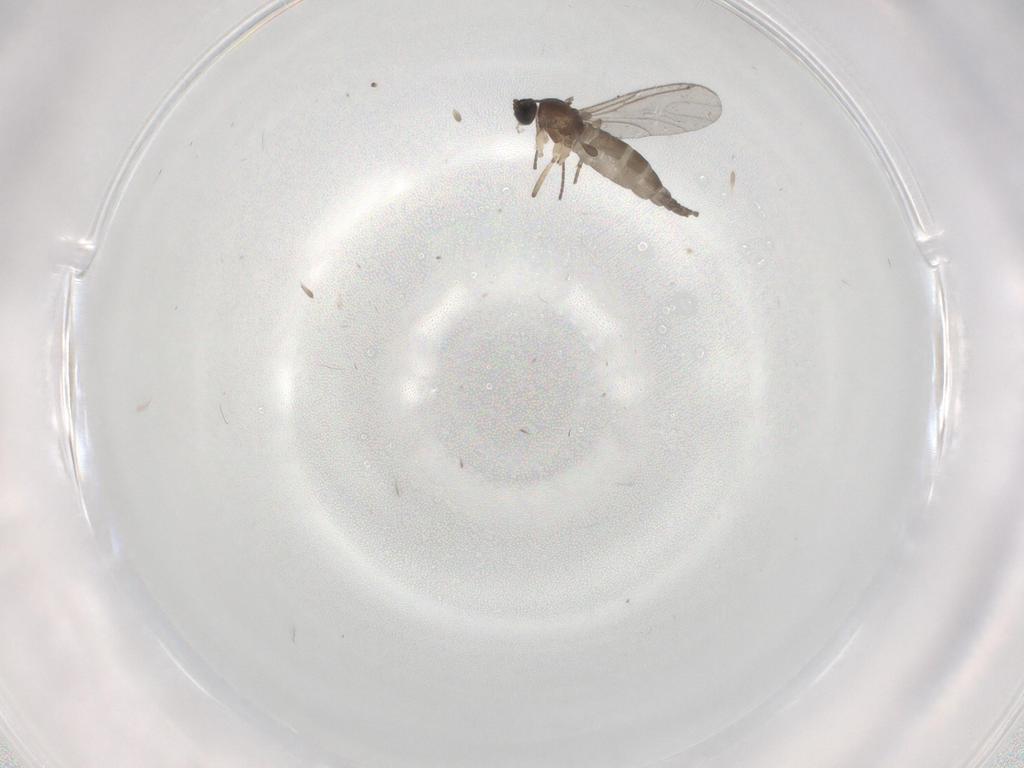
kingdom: Animalia
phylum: Arthropoda
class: Insecta
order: Diptera
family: Sciaridae
